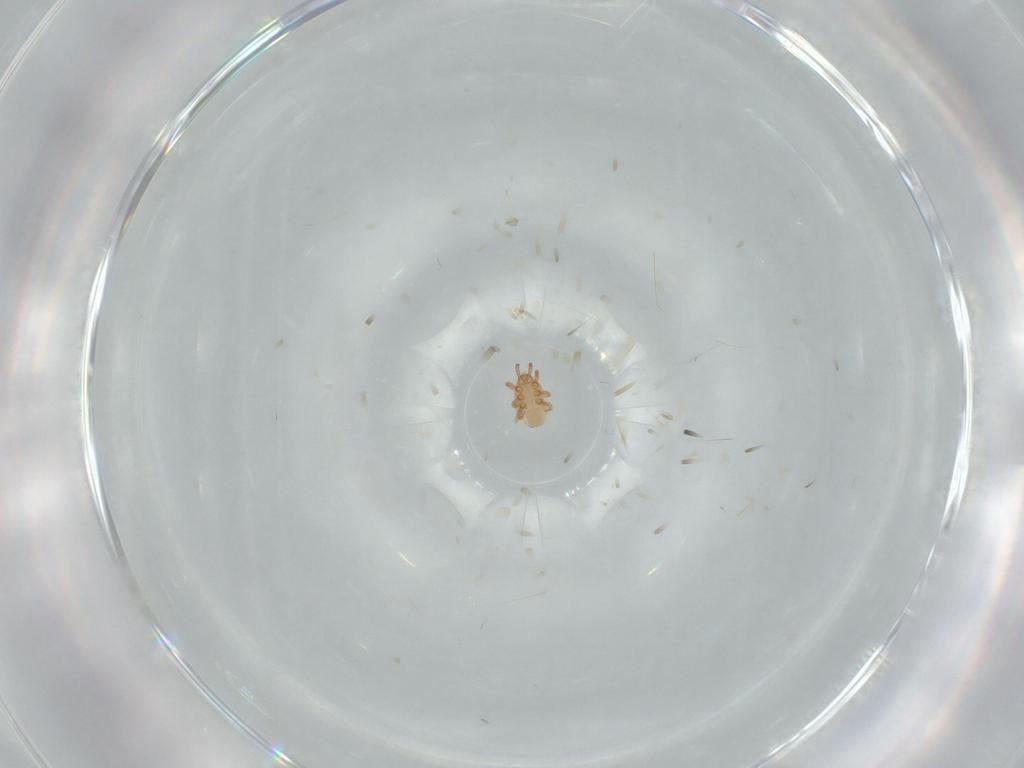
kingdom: Animalia
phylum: Arthropoda
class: Arachnida
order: Mesostigmata
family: Dinychidae
